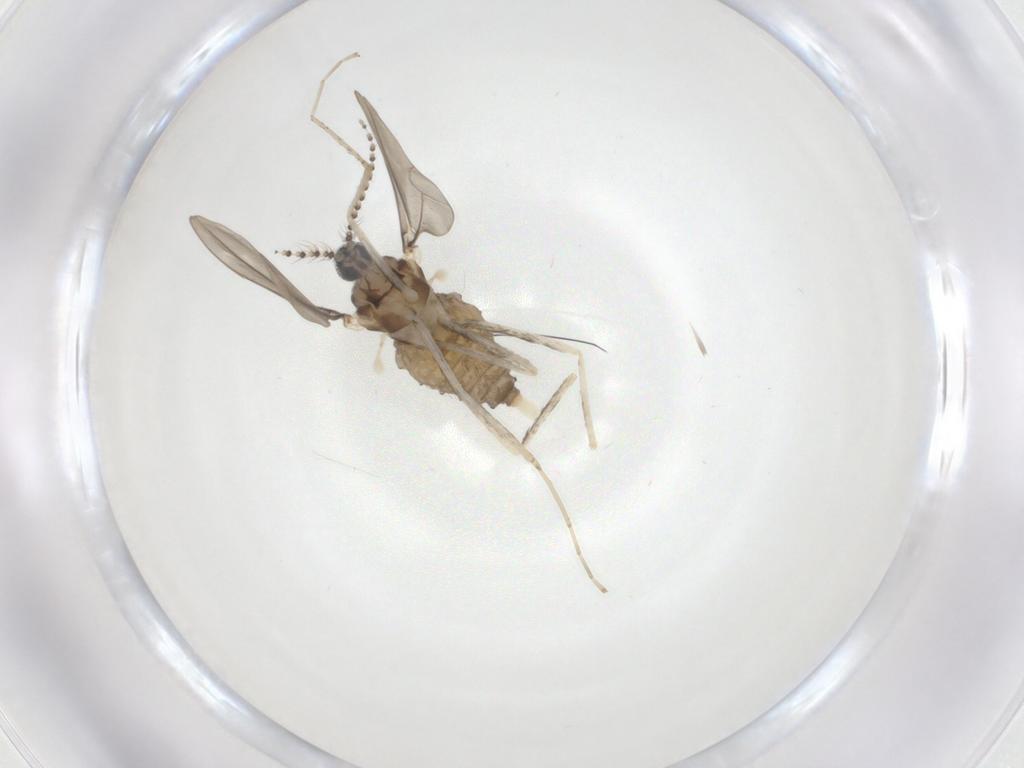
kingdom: Animalia
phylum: Arthropoda
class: Insecta
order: Diptera
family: Cecidomyiidae
